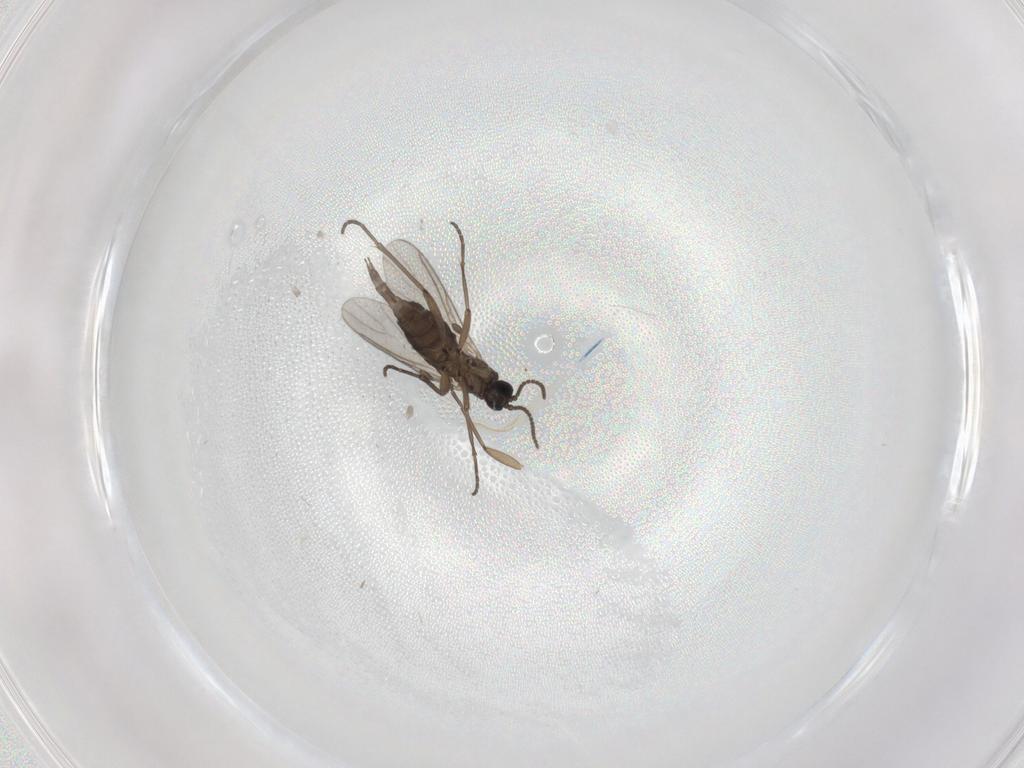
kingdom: Animalia
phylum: Arthropoda
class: Insecta
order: Diptera
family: Sciaridae
